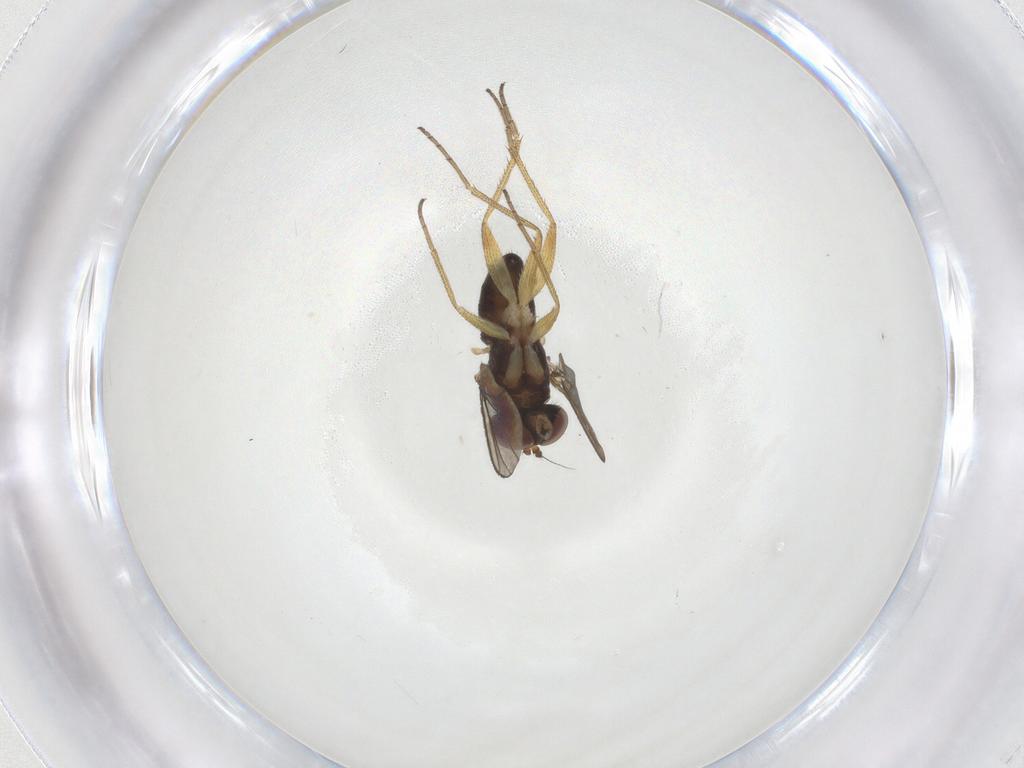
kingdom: Animalia
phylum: Arthropoda
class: Insecta
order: Diptera
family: Dolichopodidae
